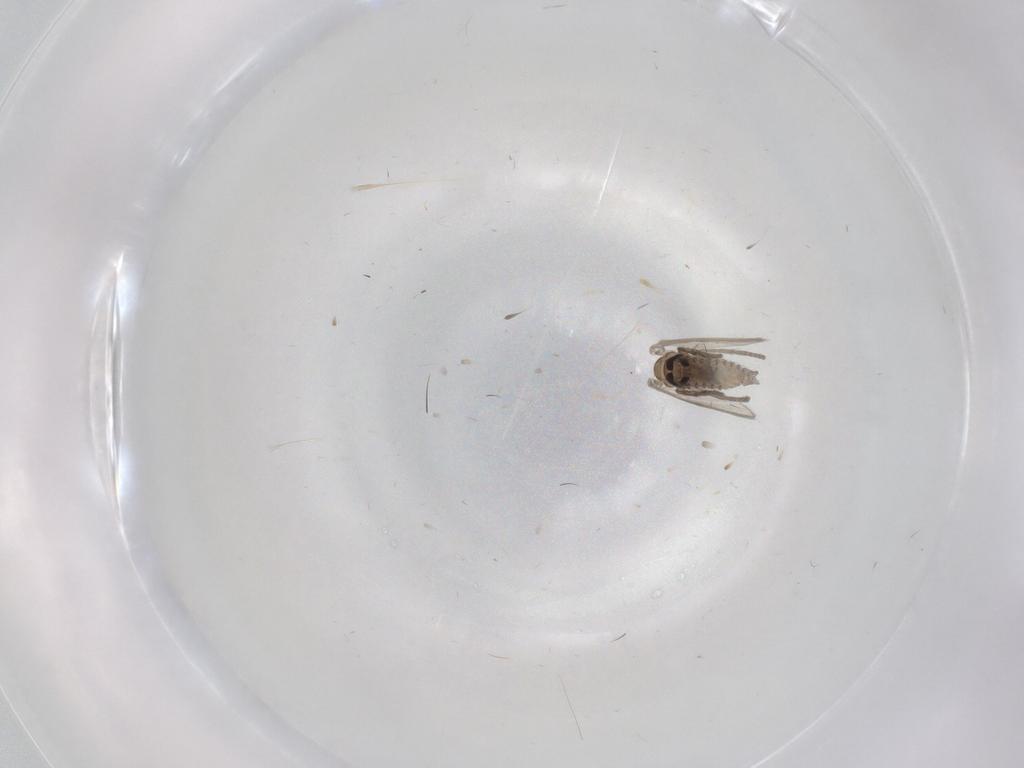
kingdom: Animalia
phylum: Arthropoda
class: Insecta
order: Diptera
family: Psychodidae
